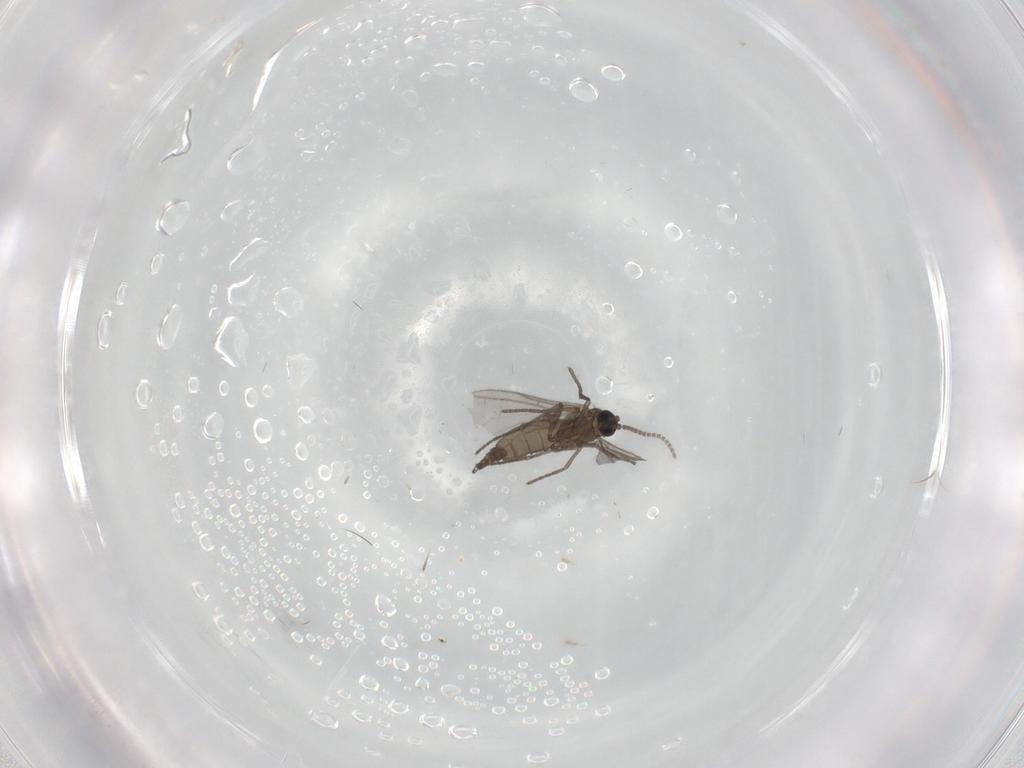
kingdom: Animalia
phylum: Arthropoda
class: Insecta
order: Diptera
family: Sciaridae
